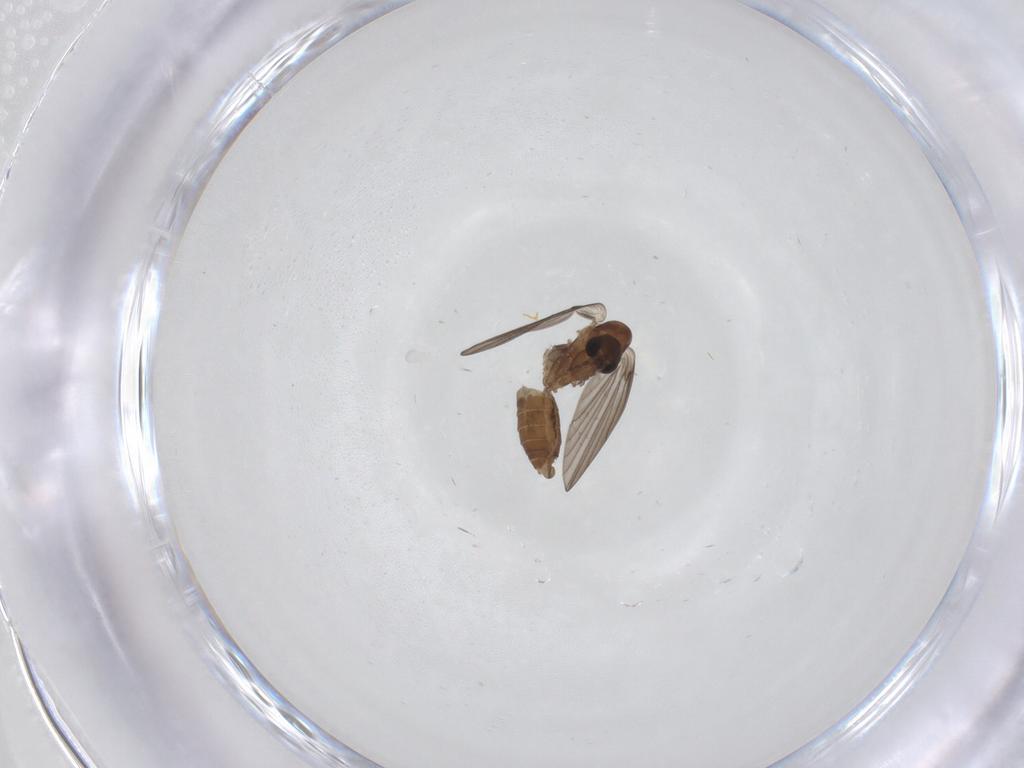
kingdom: Animalia
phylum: Arthropoda
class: Insecta
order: Diptera
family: Psychodidae
